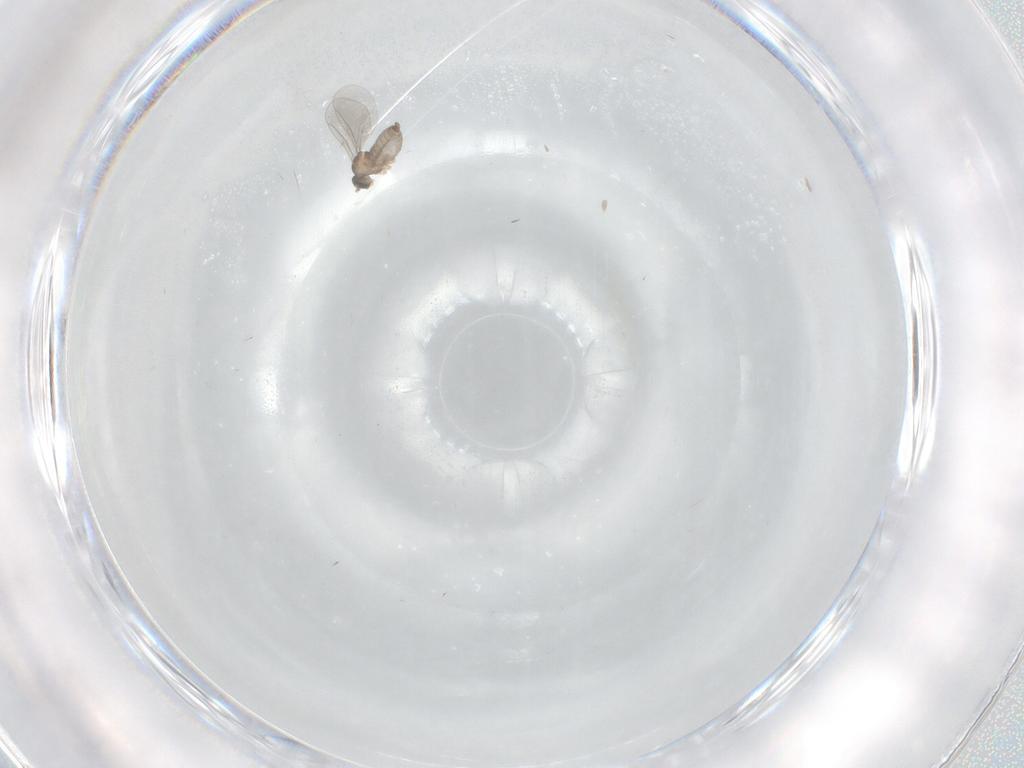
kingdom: Animalia
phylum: Arthropoda
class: Insecta
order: Diptera
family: Cecidomyiidae
